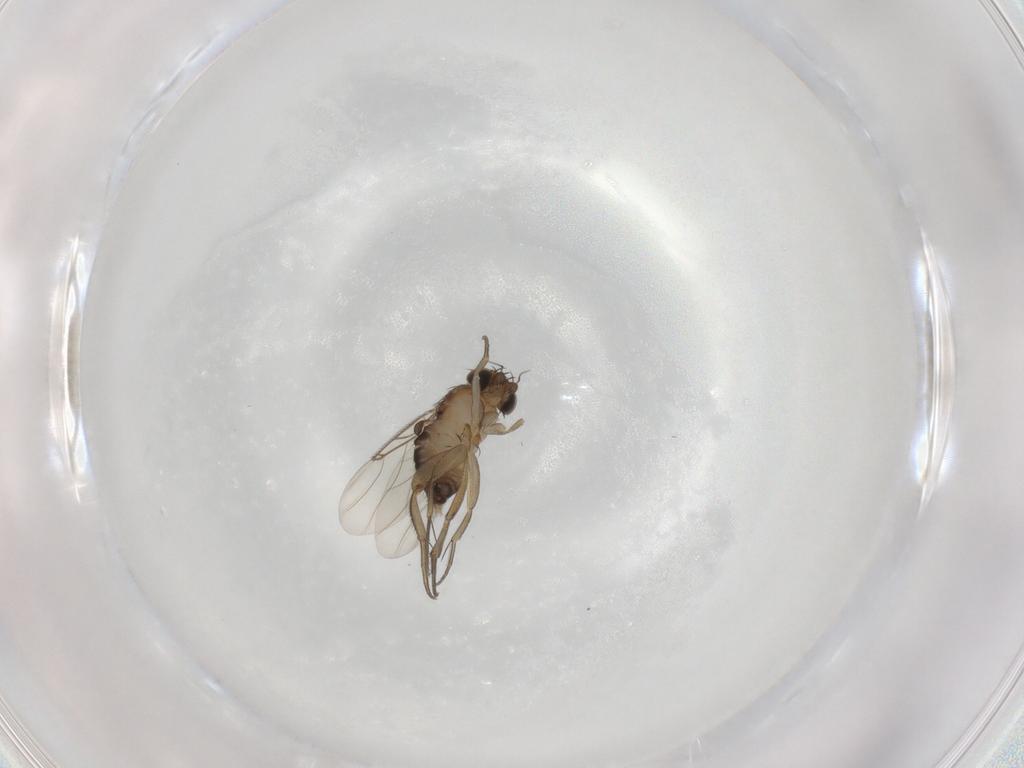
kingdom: Animalia
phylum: Arthropoda
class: Insecta
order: Diptera
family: Phoridae
